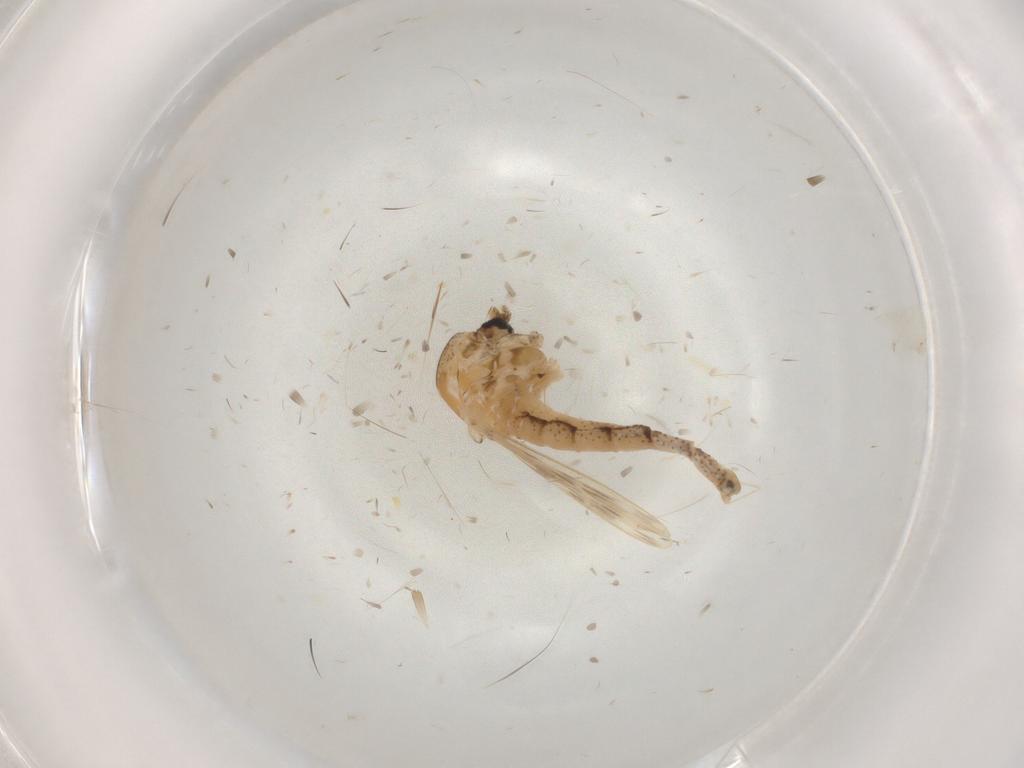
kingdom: Animalia
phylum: Arthropoda
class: Insecta
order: Diptera
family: Chaoboridae
